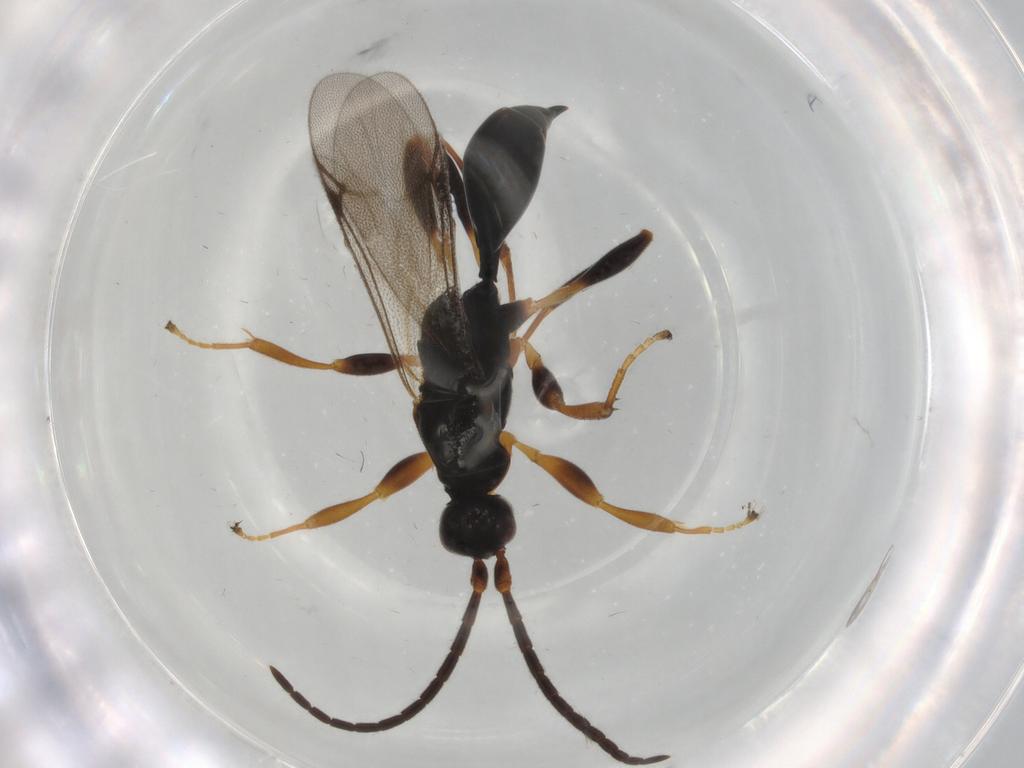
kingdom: Animalia
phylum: Arthropoda
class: Insecta
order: Hymenoptera
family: Proctotrupidae
